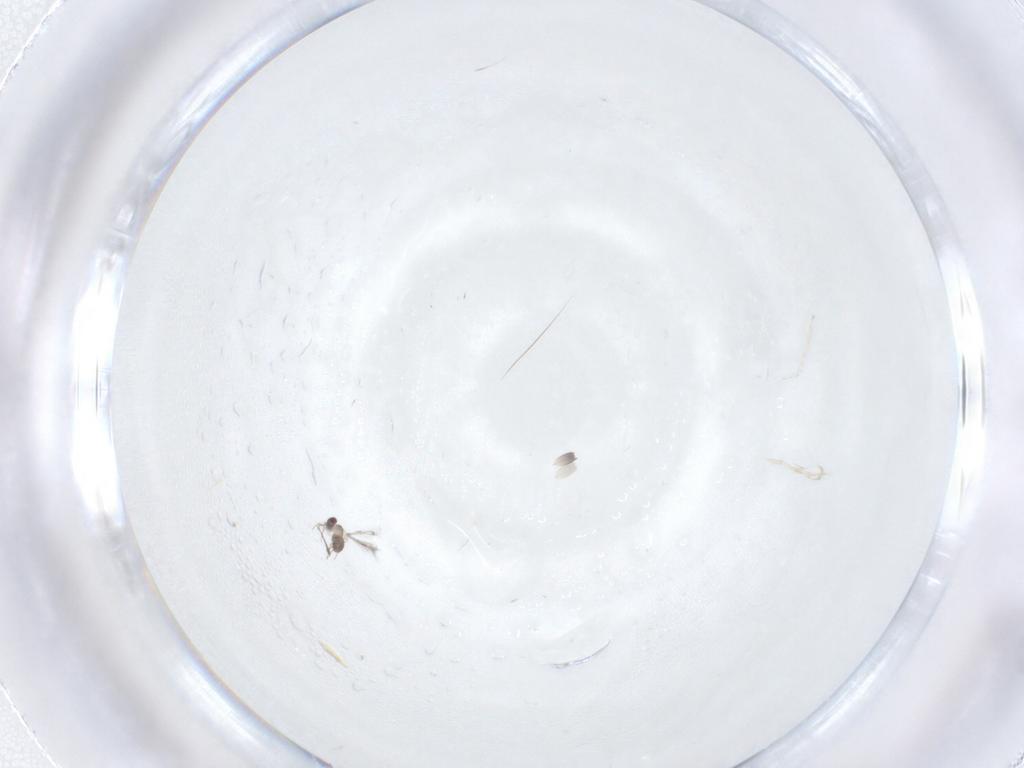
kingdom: Animalia
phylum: Arthropoda
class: Insecta
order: Hymenoptera
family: Mymaridae
